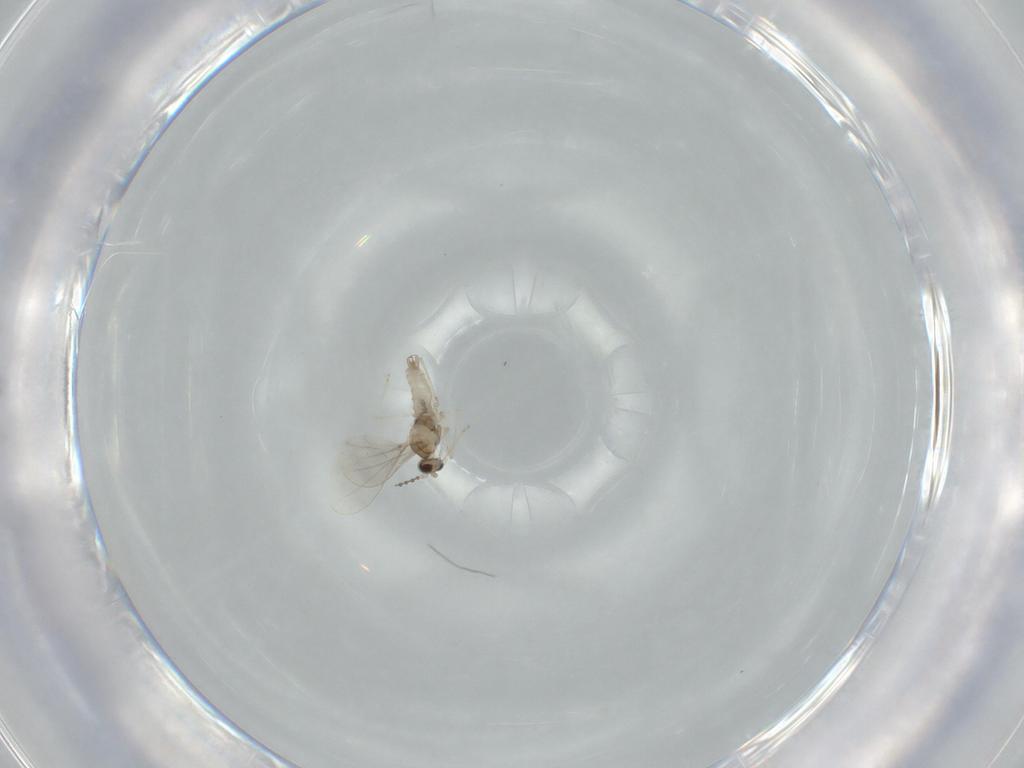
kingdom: Animalia
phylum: Arthropoda
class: Insecta
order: Diptera
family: Cecidomyiidae
